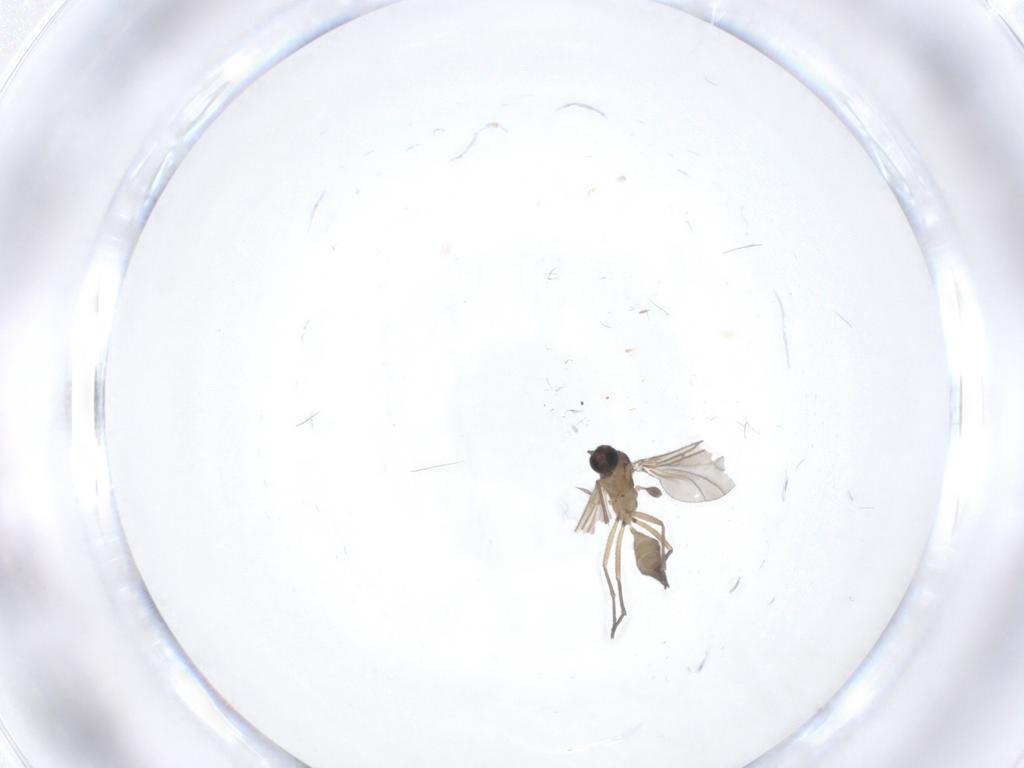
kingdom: Animalia
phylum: Arthropoda
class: Insecta
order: Diptera
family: Sciaridae
